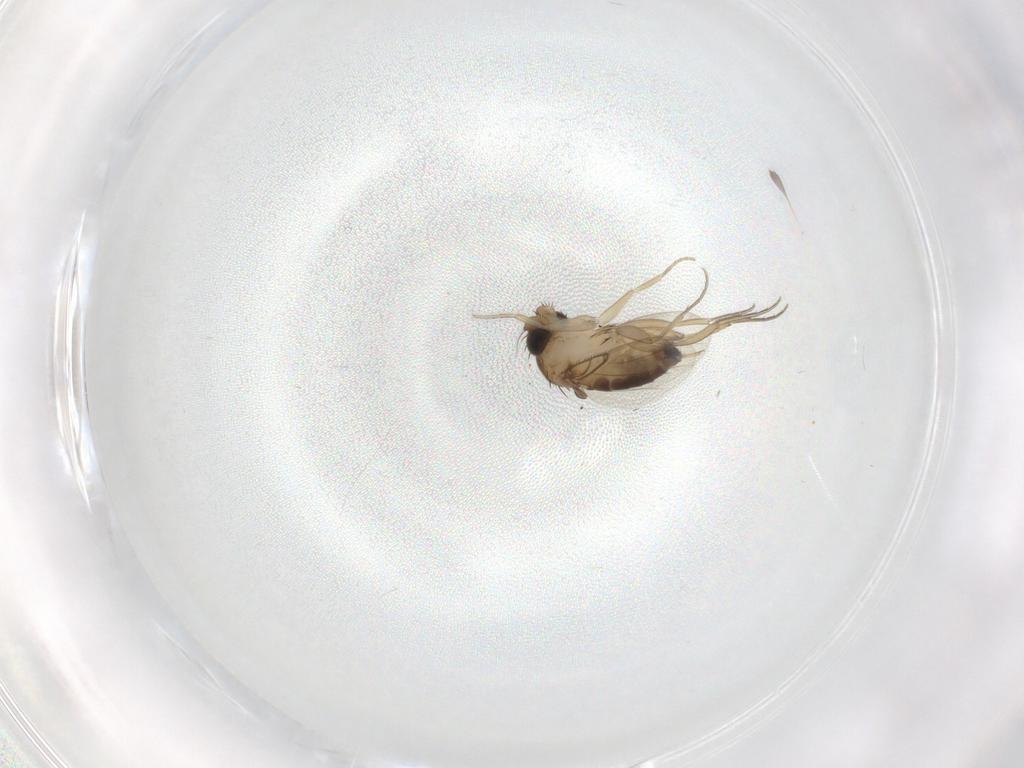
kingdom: Animalia
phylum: Arthropoda
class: Insecta
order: Diptera
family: Phoridae
